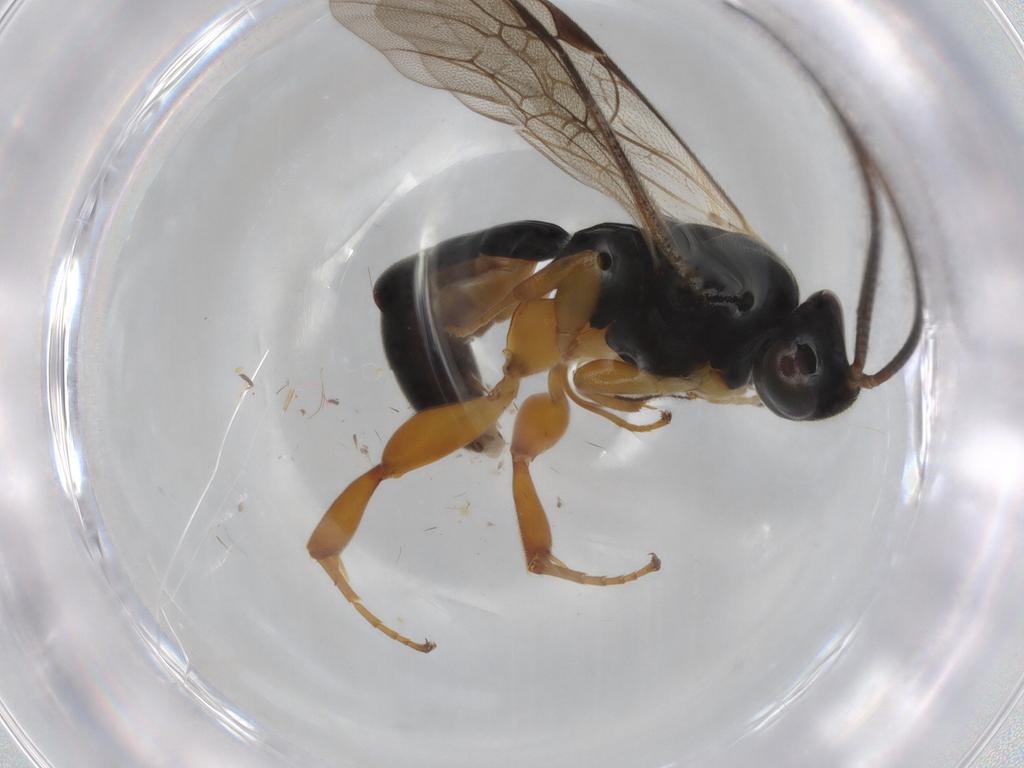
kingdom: Animalia
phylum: Arthropoda
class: Insecta
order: Hymenoptera
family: Ichneumonidae
